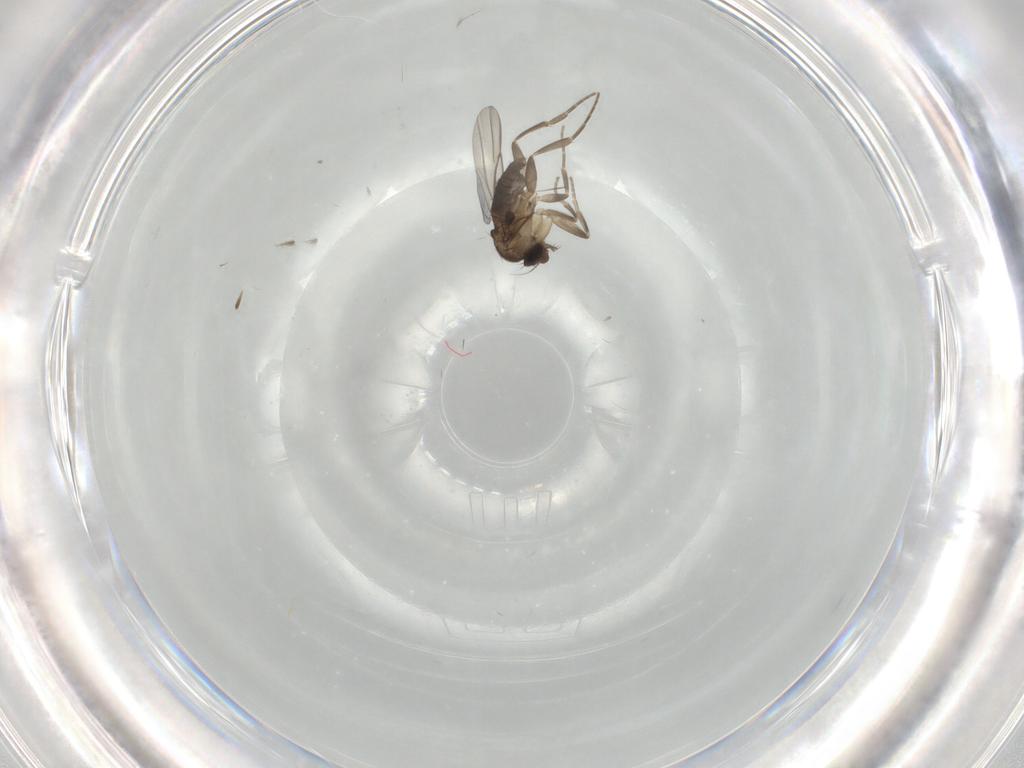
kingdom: Animalia
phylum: Arthropoda
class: Insecta
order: Diptera
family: Phoridae
